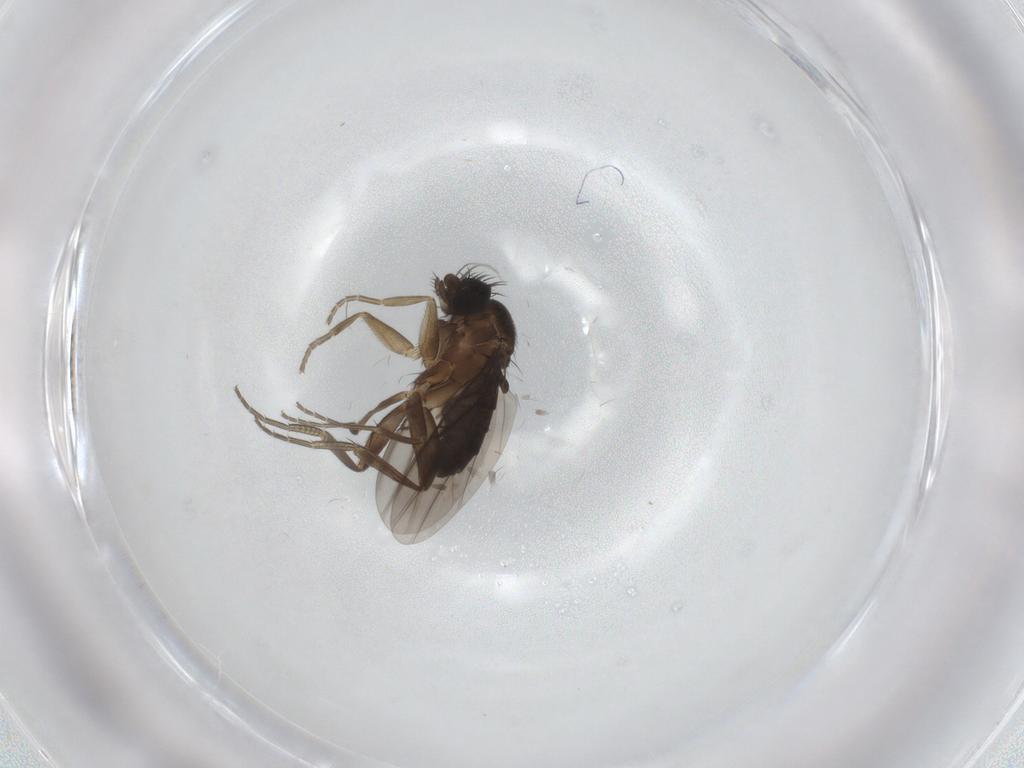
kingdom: Animalia
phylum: Arthropoda
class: Insecta
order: Diptera
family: Phoridae
